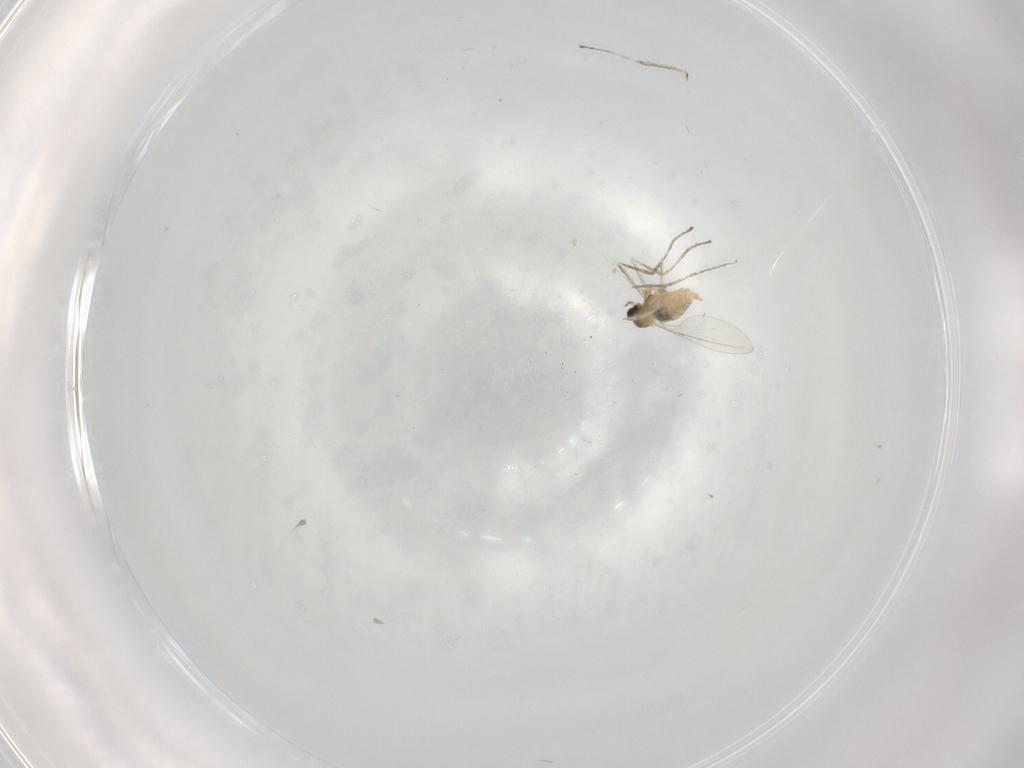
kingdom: Animalia
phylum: Arthropoda
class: Insecta
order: Diptera
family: Cecidomyiidae
